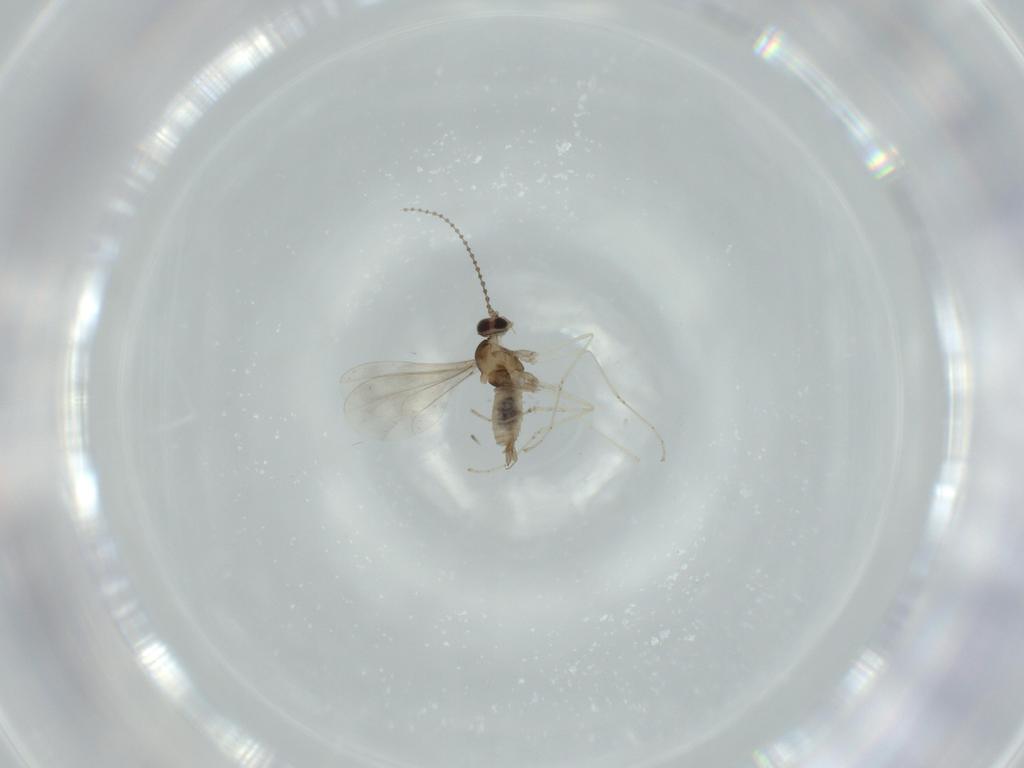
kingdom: Animalia
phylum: Arthropoda
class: Insecta
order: Diptera
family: Cecidomyiidae
